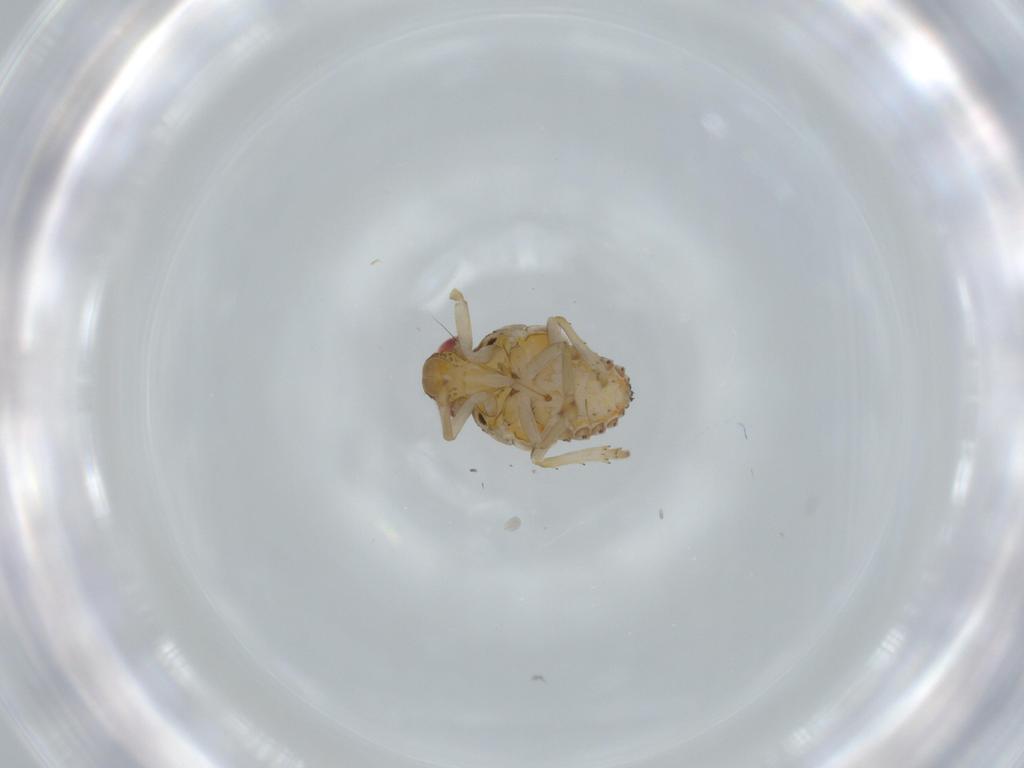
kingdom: Animalia
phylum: Arthropoda
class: Insecta
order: Hemiptera
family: Issidae
